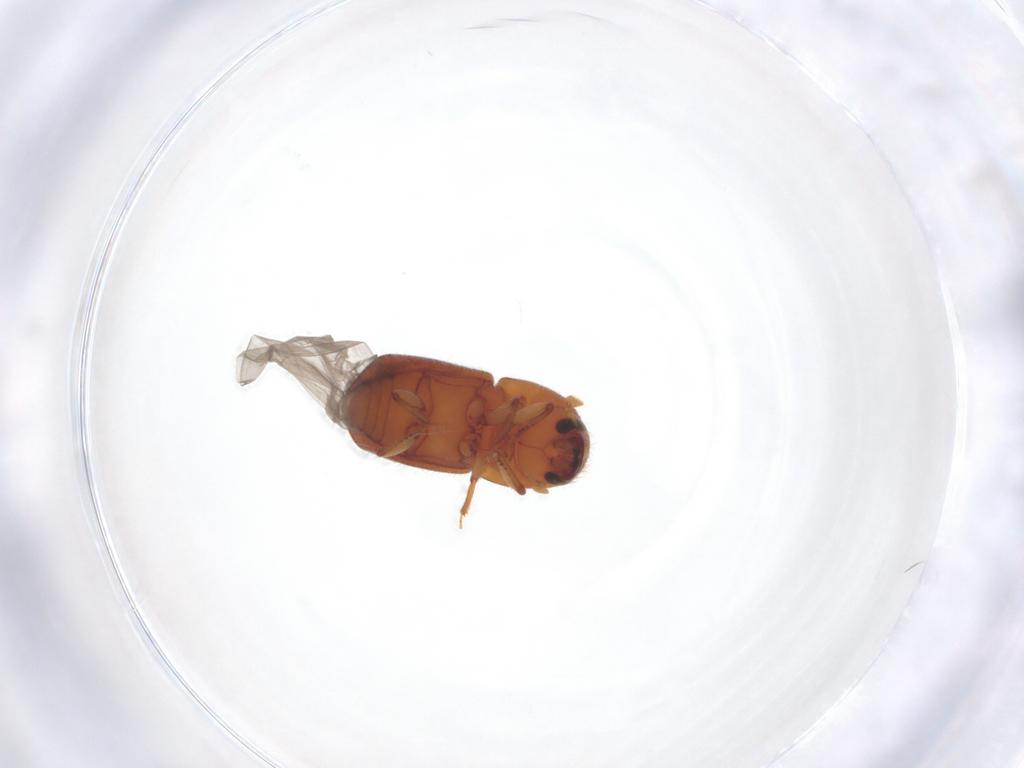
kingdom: Animalia
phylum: Arthropoda
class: Insecta
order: Coleoptera
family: Curculionidae
